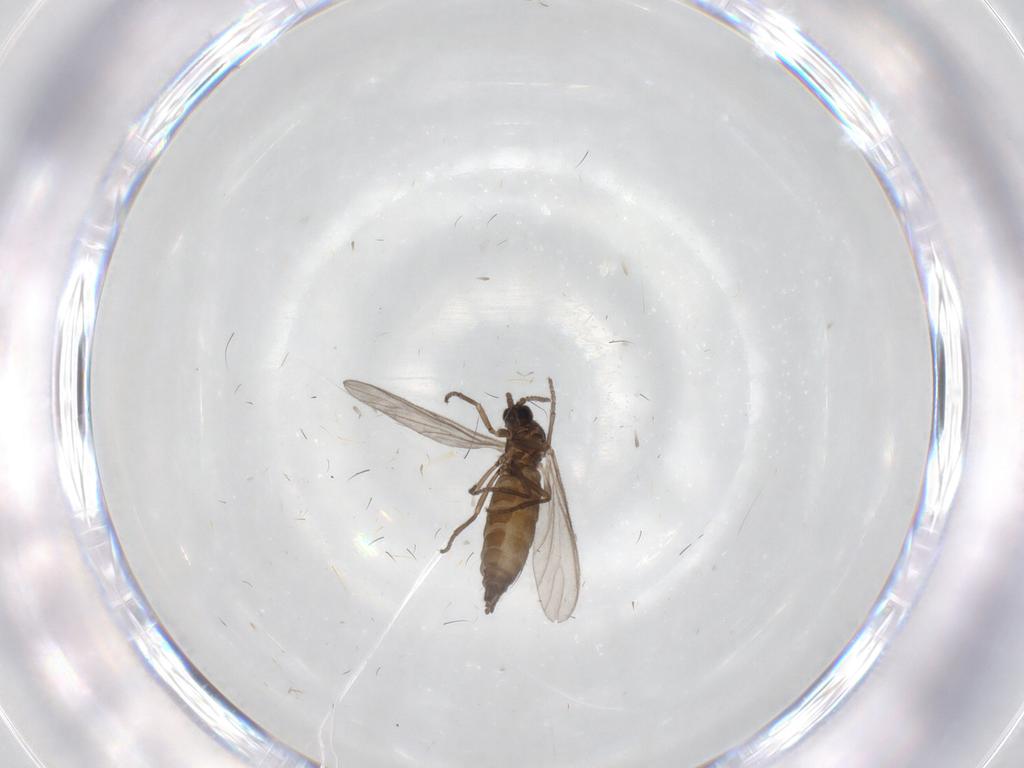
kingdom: Animalia
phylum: Arthropoda
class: Insecta
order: Diptera
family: Sciaridae
